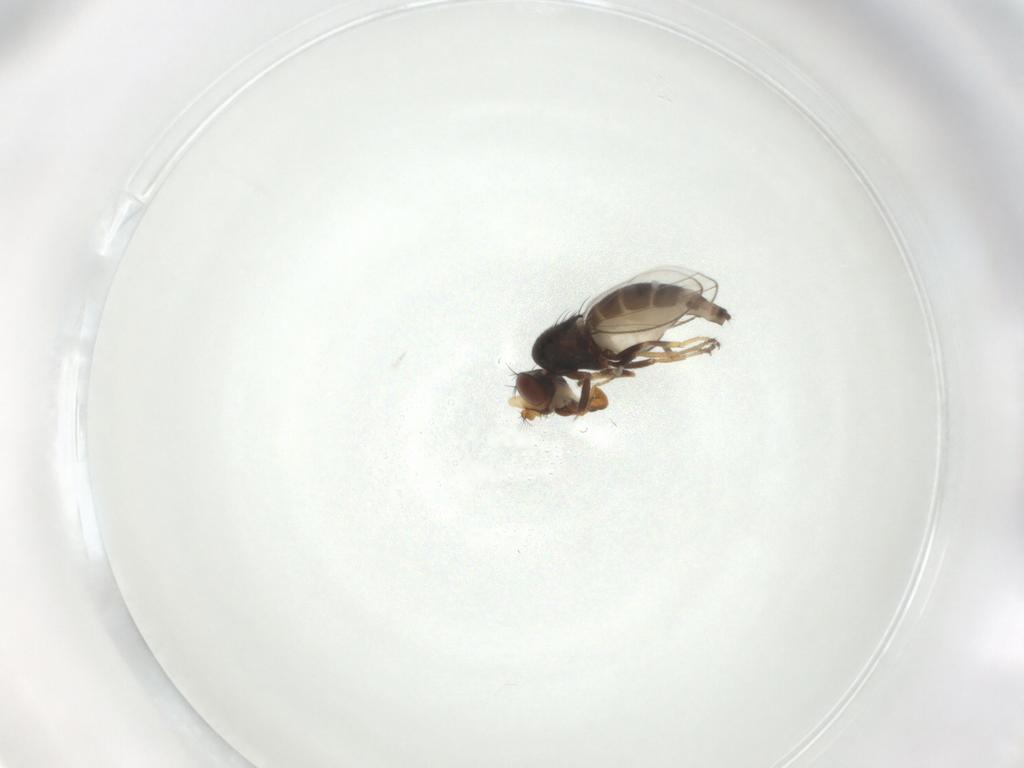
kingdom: Animalia
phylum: Arthropoda
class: Insecta
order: Diptera
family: Ephydridae
